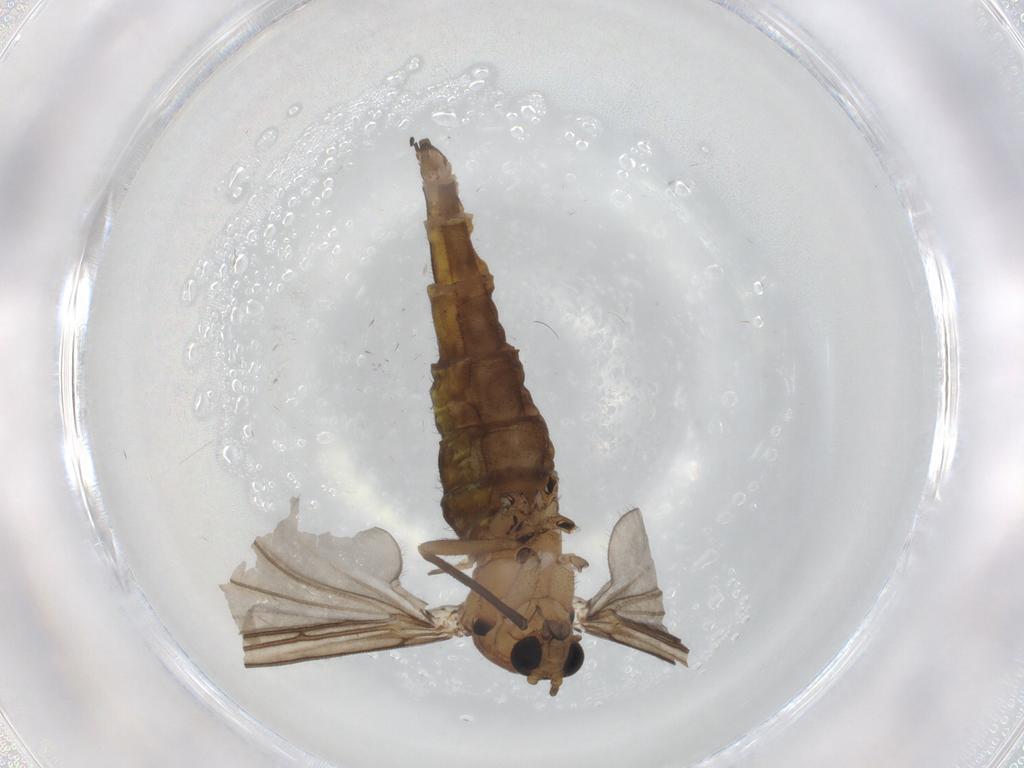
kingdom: Animalia
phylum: Arthropoda
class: Insecta
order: Diptera
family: Sciaridae
